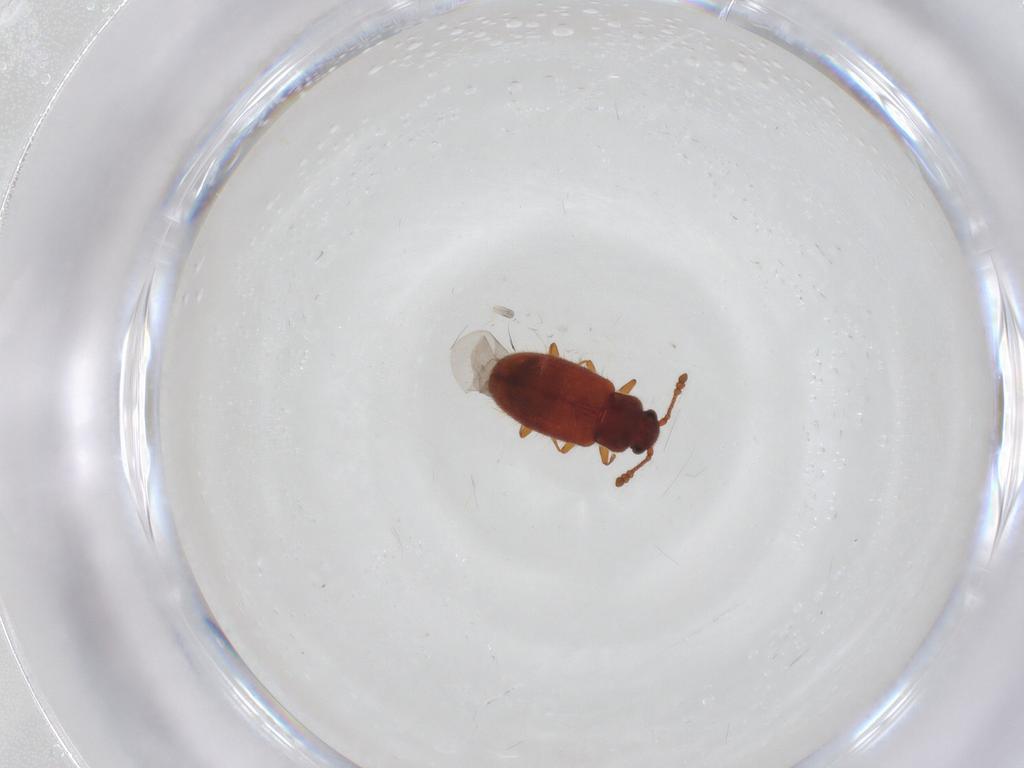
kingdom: Animalia
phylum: Arthropoda
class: Insecta
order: Coleoptera
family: Cryptophagidae
